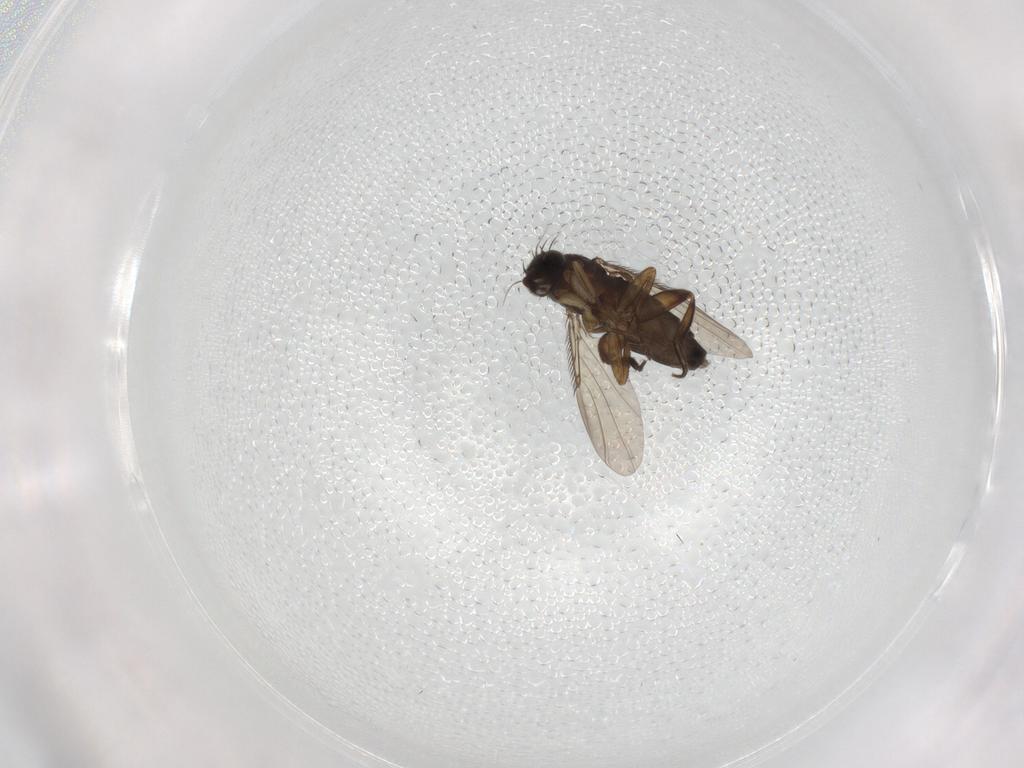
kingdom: Animalia
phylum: Arthropoda
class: Insecta
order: Diptera
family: Phoridae
